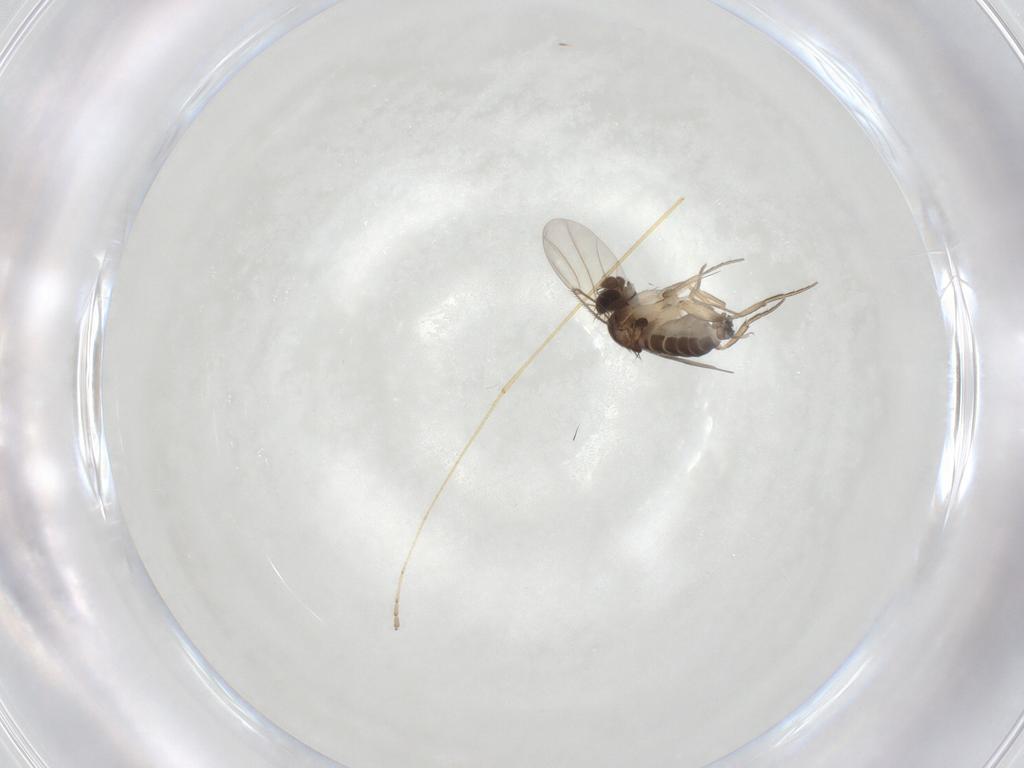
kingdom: Animalia
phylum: Arthropoda
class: Insecta
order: Diptera
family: Phoridae
